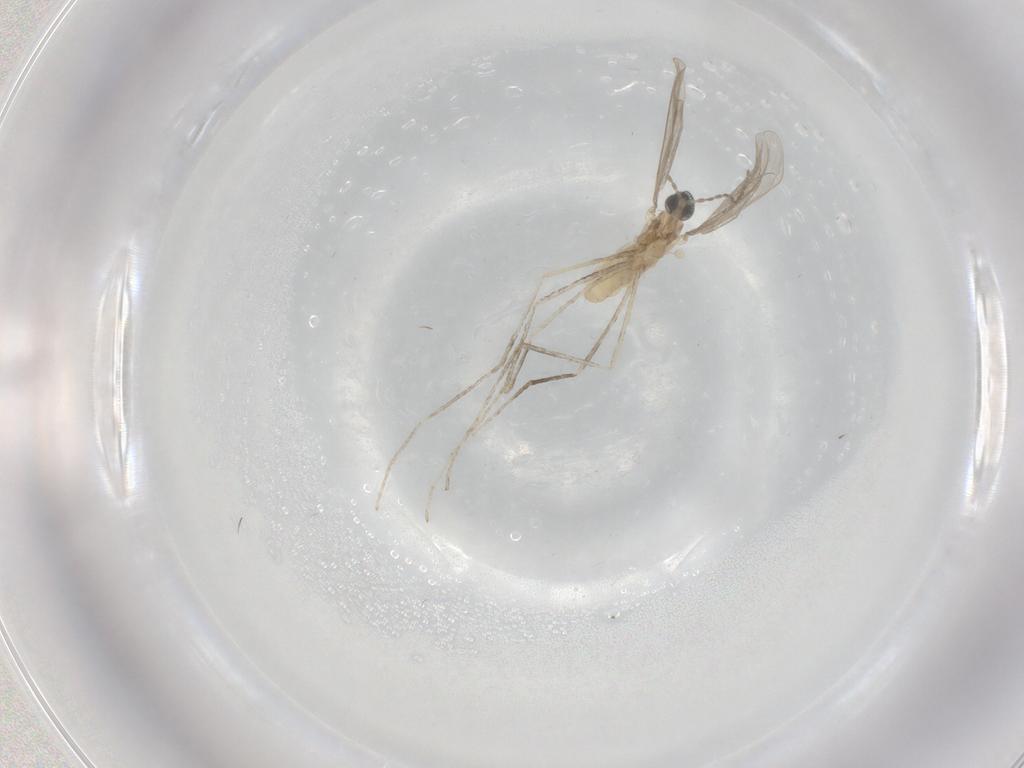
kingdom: Animalia
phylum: Arthropoda
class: Insecta
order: Diptera
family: Cecidomyiidae
